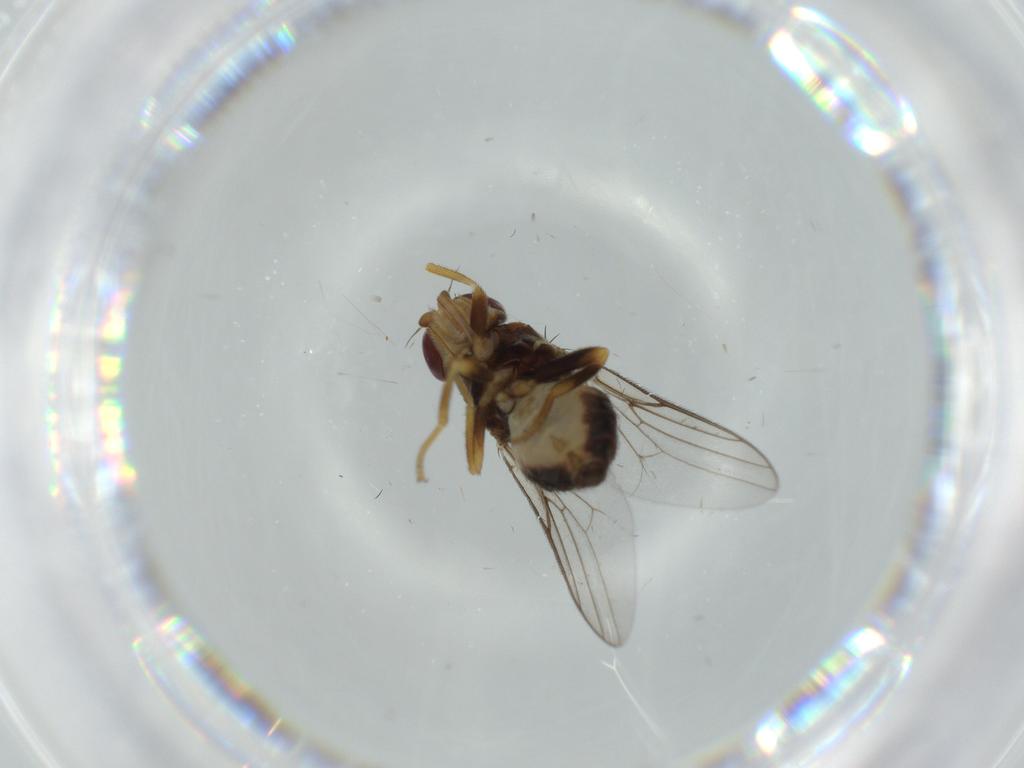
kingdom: Animalia
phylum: Arthropoda
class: Insecta
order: Diptera
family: Chloropidae
